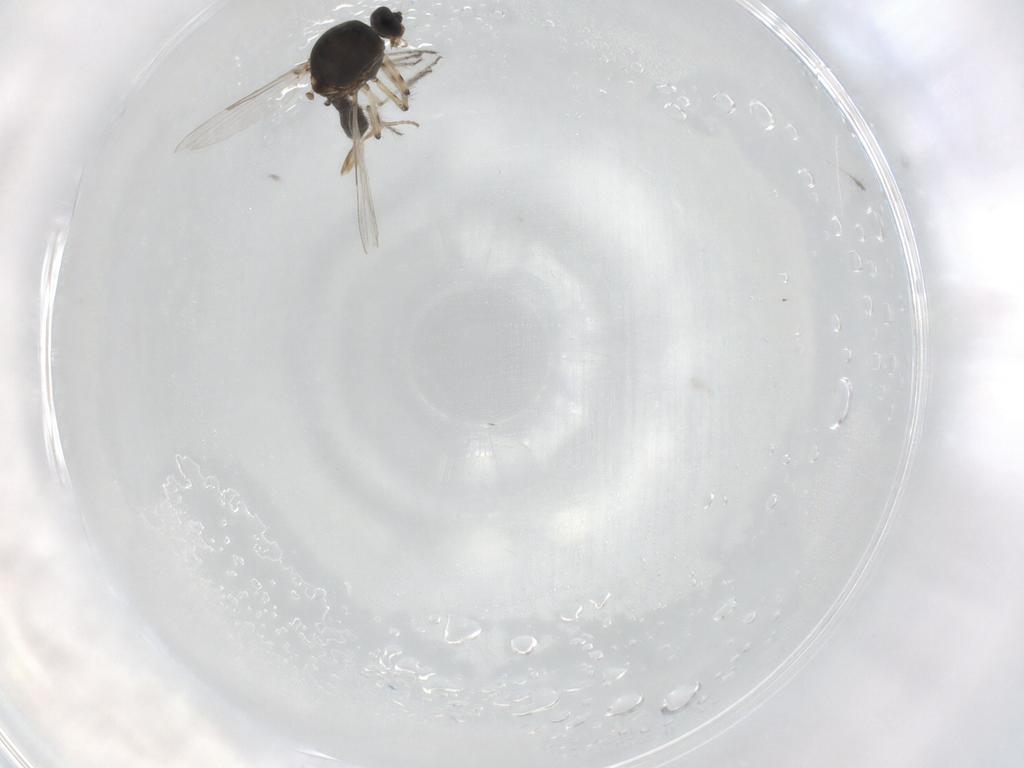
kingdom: Animalia
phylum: Arthropoda
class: Insecta
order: Diptera
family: Ceratopogonidae
